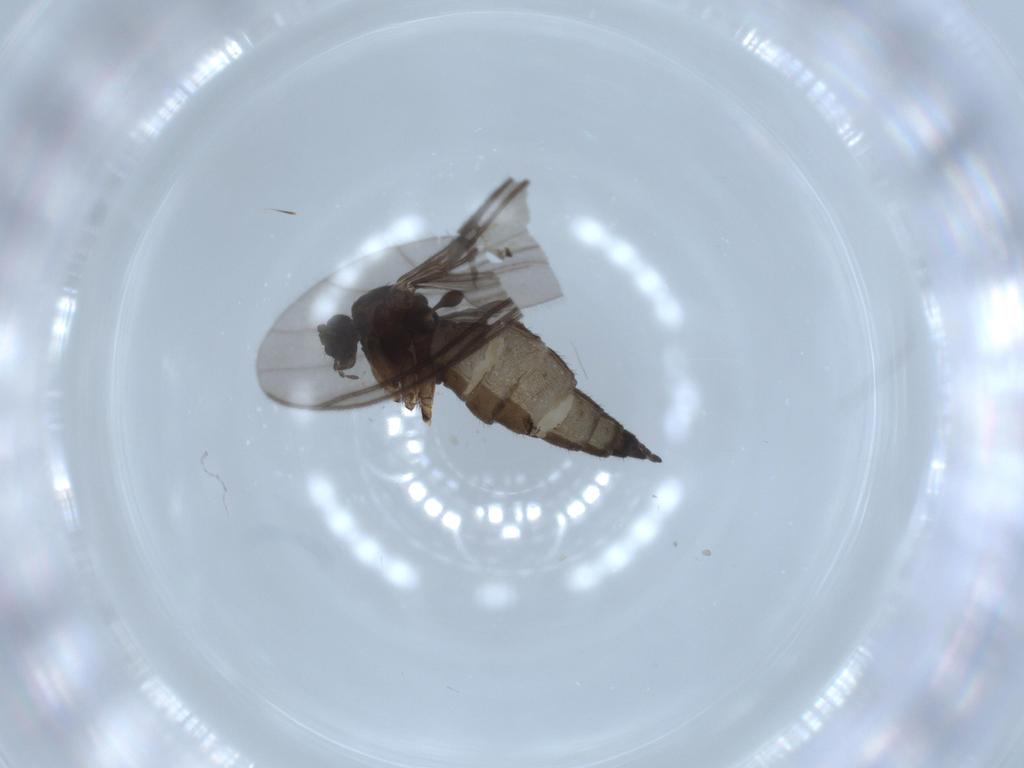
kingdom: Animalia
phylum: Arthropoda
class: Insecta
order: Diptera
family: Sciaridae
